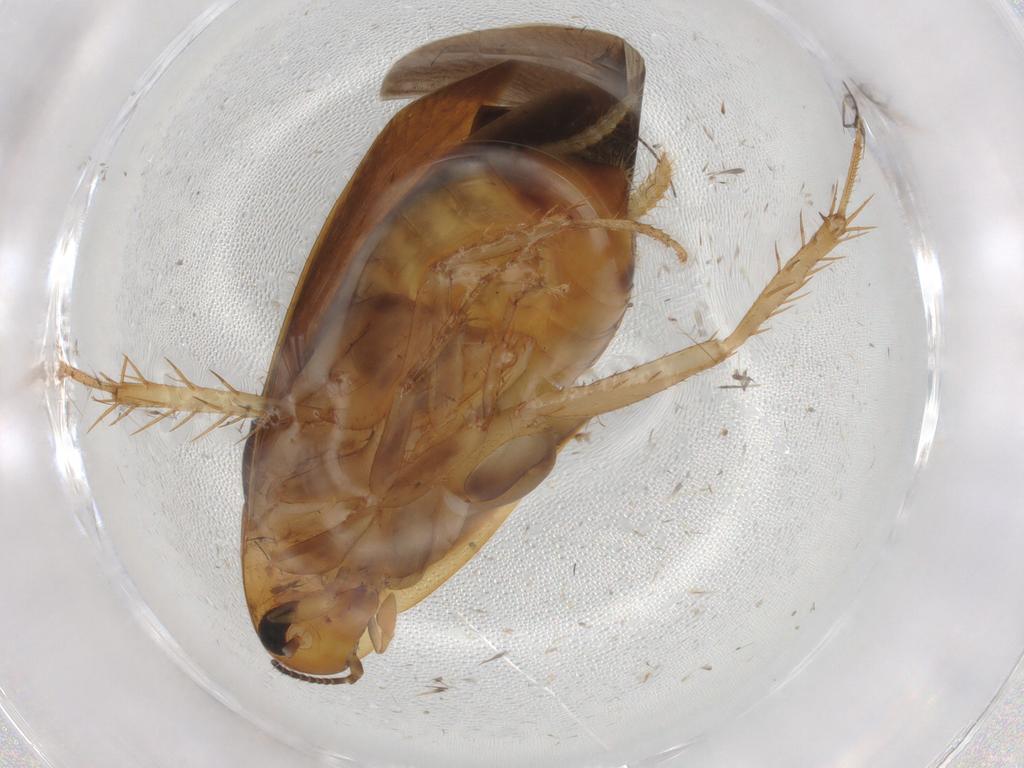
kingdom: Animalia
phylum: Arthropoda
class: Insecta
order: Blattodea
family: Tryonicidae
